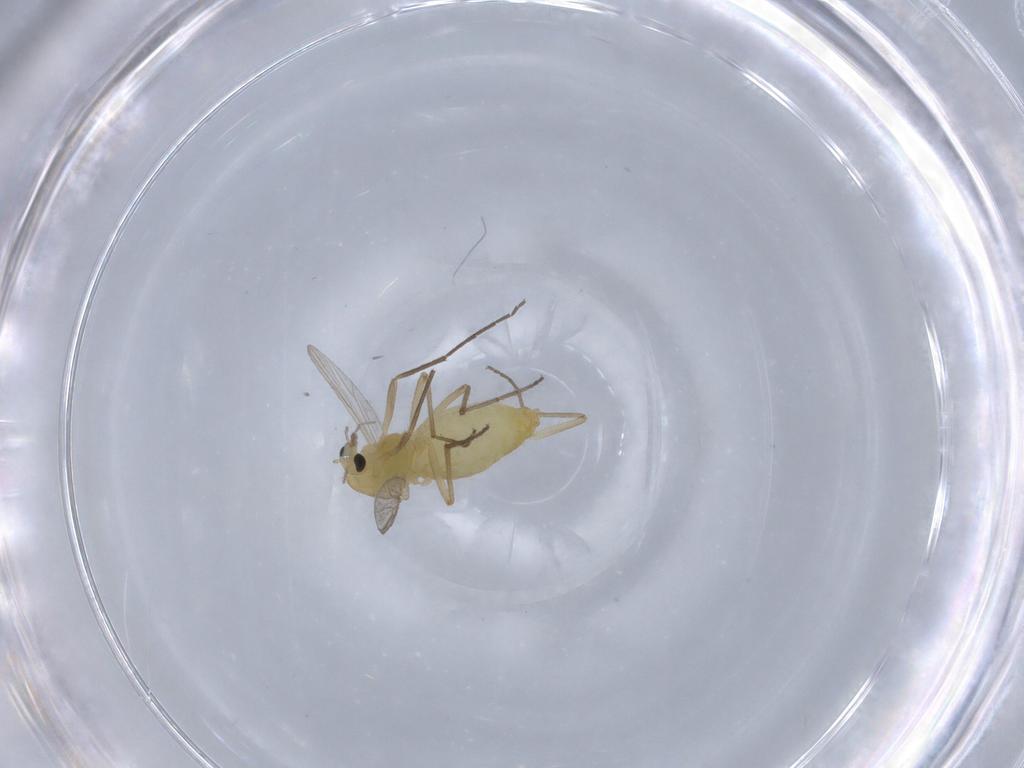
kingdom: Animalia
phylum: Arthropoda
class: Insecta
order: Diptera
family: Chironomidae
